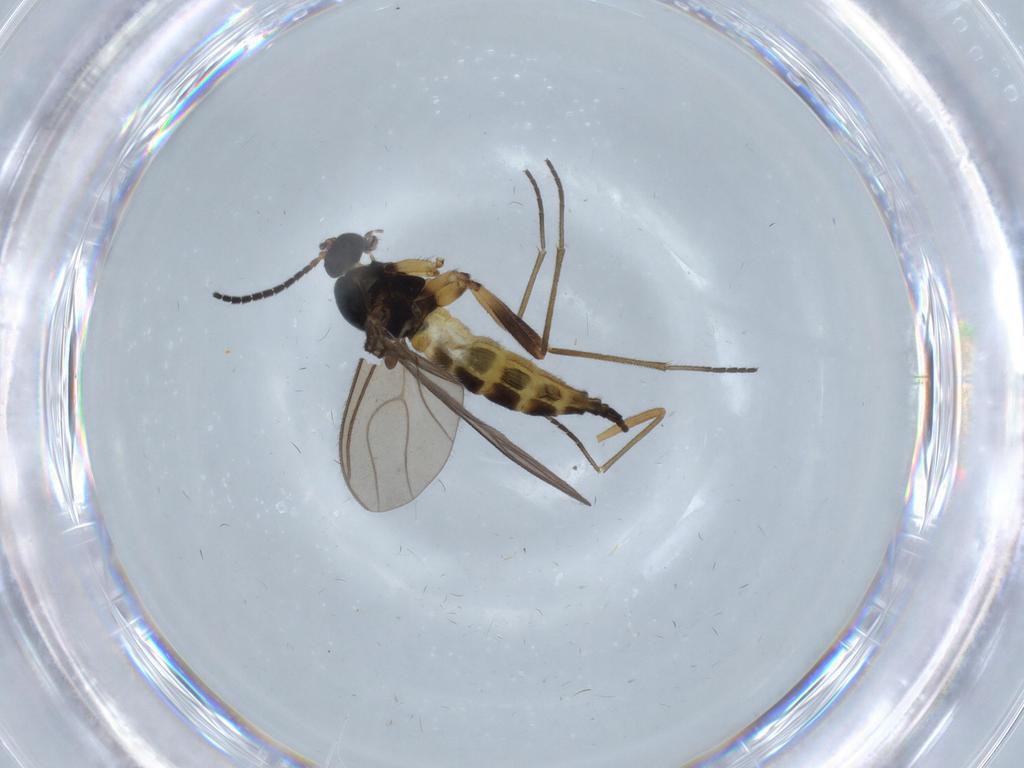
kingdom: Animalia
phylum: Arthropoda
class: Insecta
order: Diptera
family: Sciaridae
